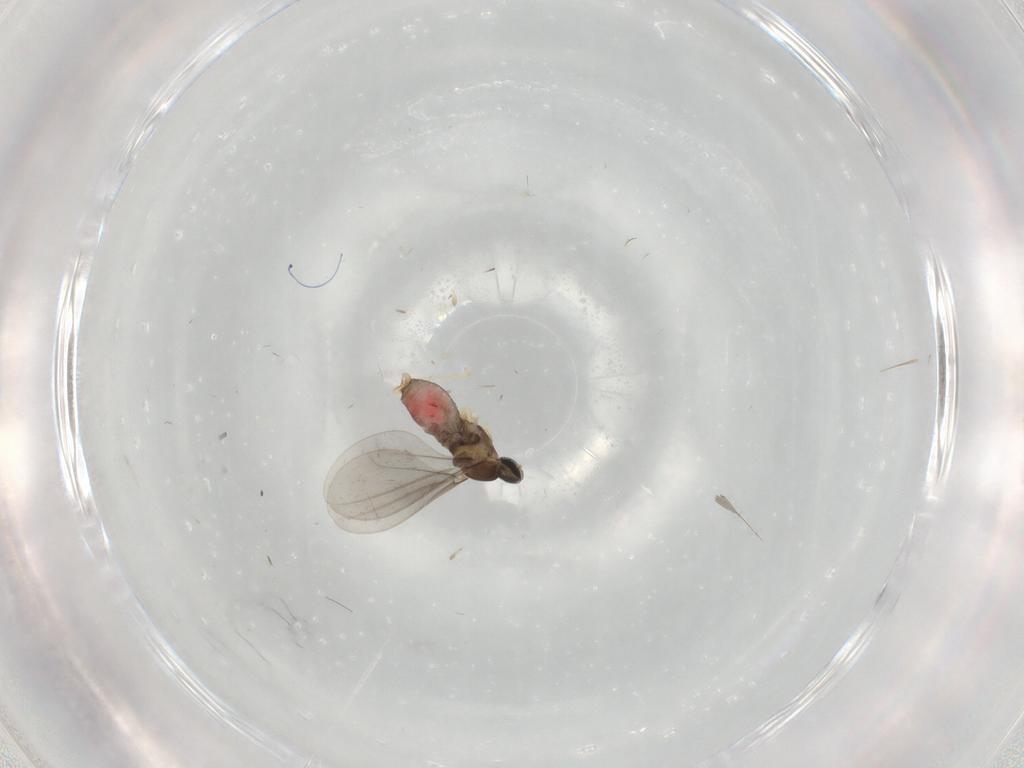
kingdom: Animalia
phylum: Arthropoda
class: Insecta
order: Diptera
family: Cecidomyiidae
